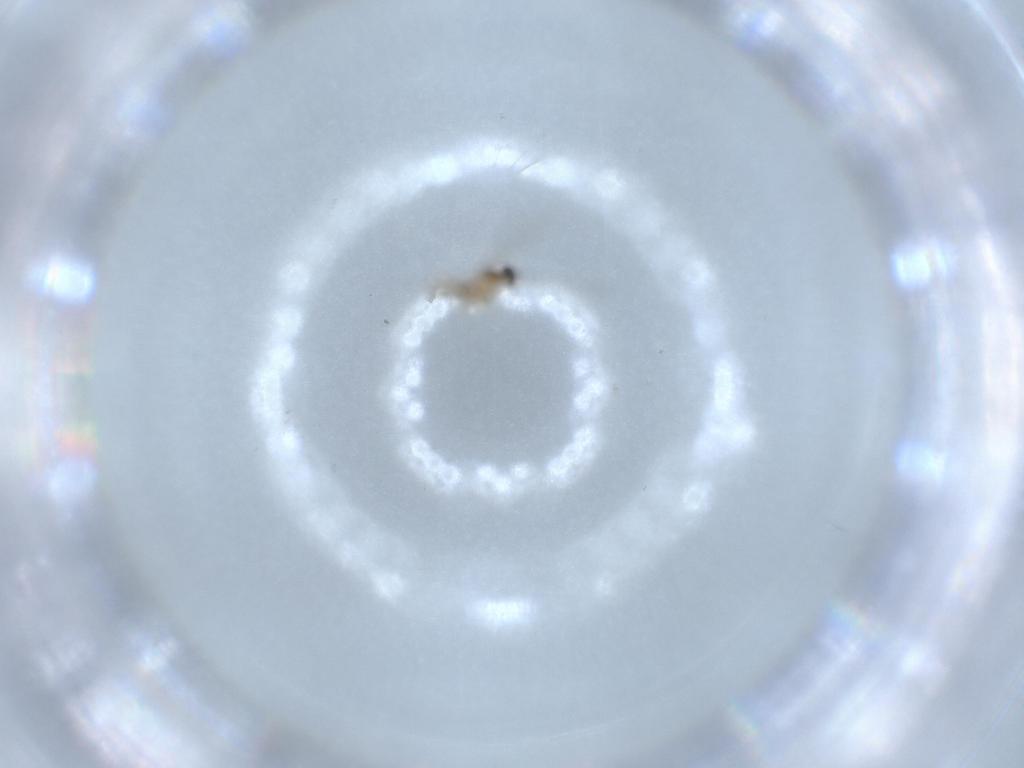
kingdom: Animalia
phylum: Arthropoda
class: Insecta
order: Diptera
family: Cecidomyiidae
